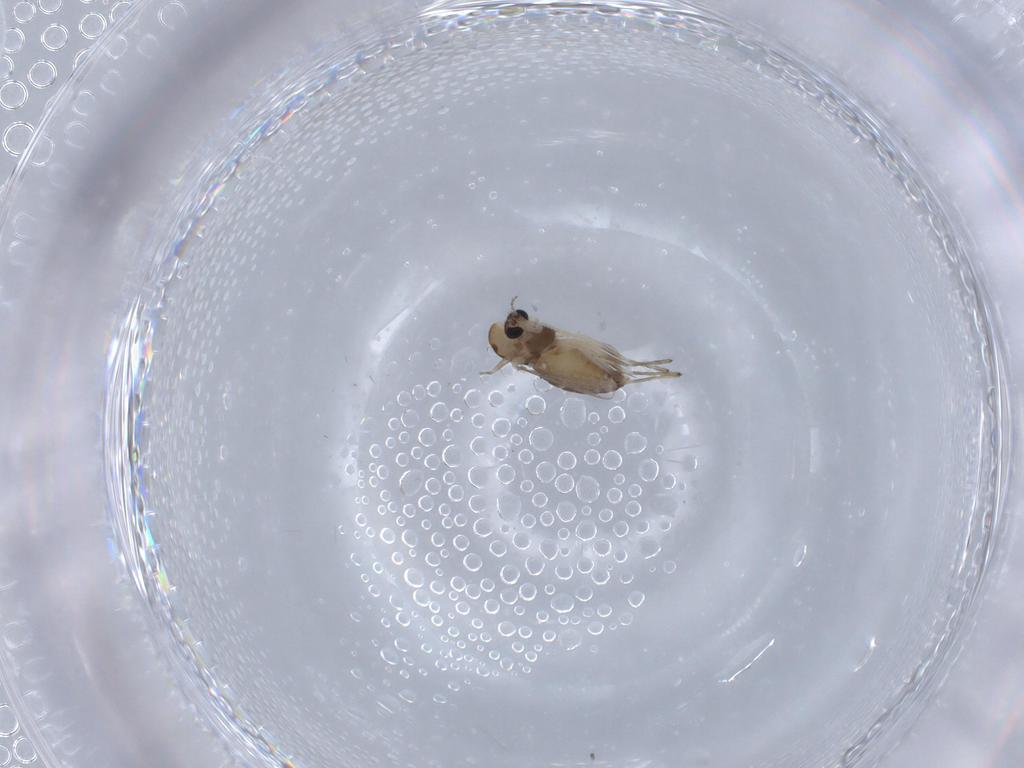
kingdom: Animalia
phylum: Arthropoda
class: Insecta
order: Diptera
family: Chironomidae
